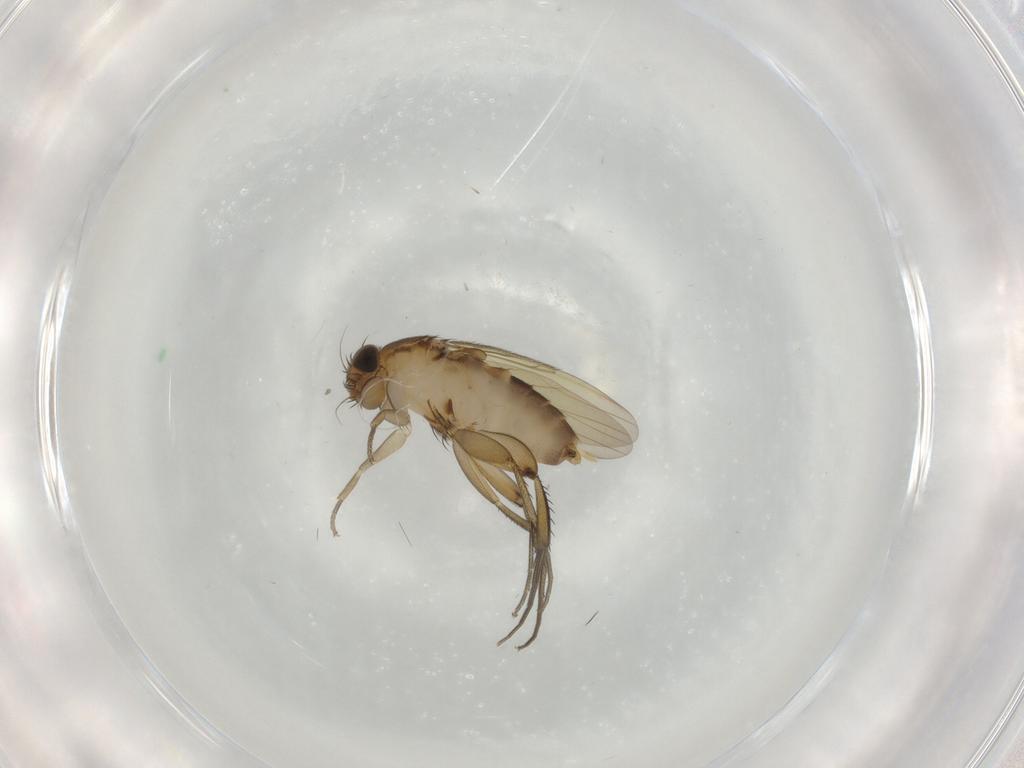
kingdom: Animalia
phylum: Arthropoda
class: Insecta
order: Diptera
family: Phoridae
